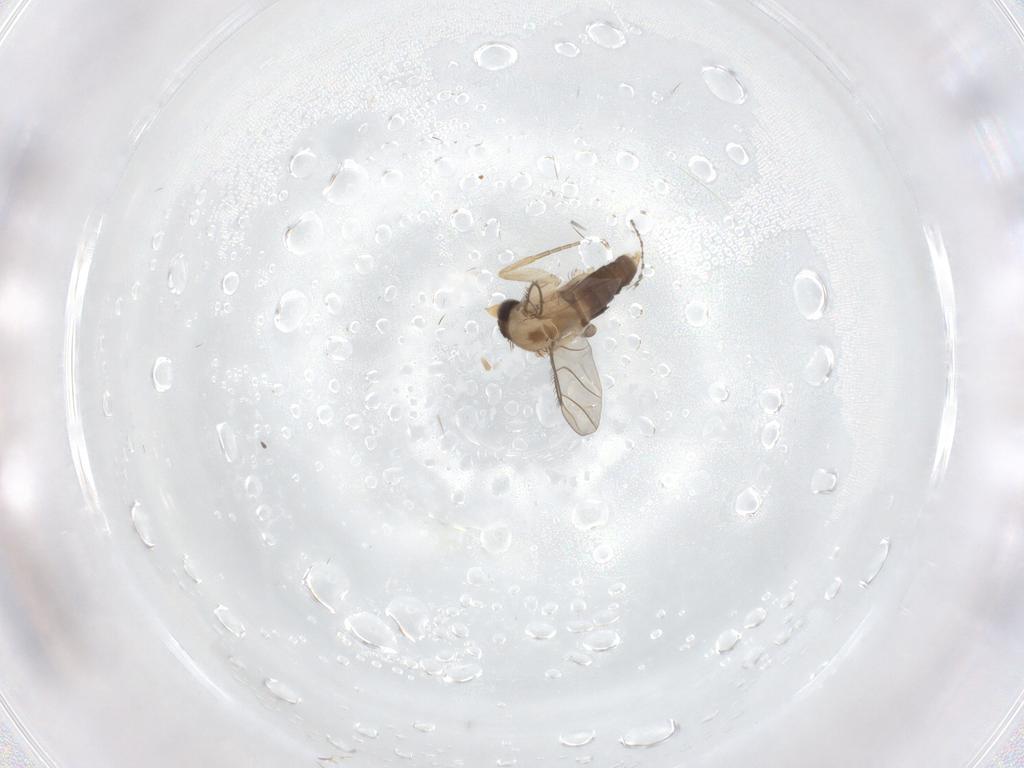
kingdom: Animalia
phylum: Arthropoda
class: Insecta
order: Diptera
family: Phoridae
